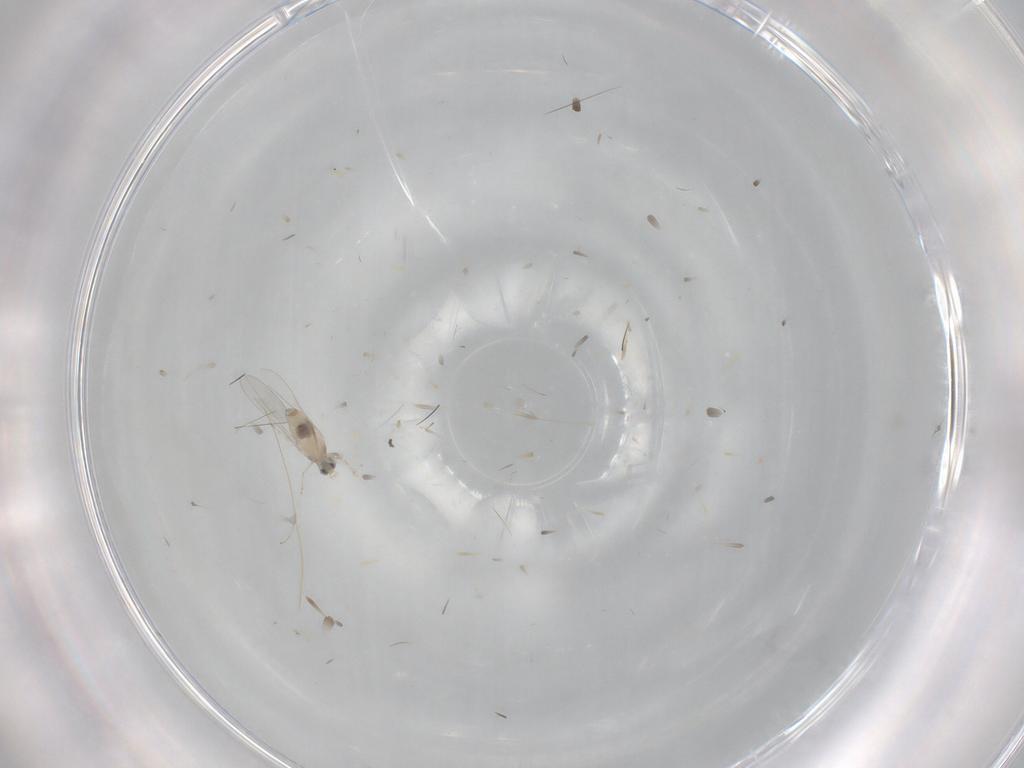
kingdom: Animalia
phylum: Arthropoda
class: Insecta
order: Diptera
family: Cecidomyiidae
